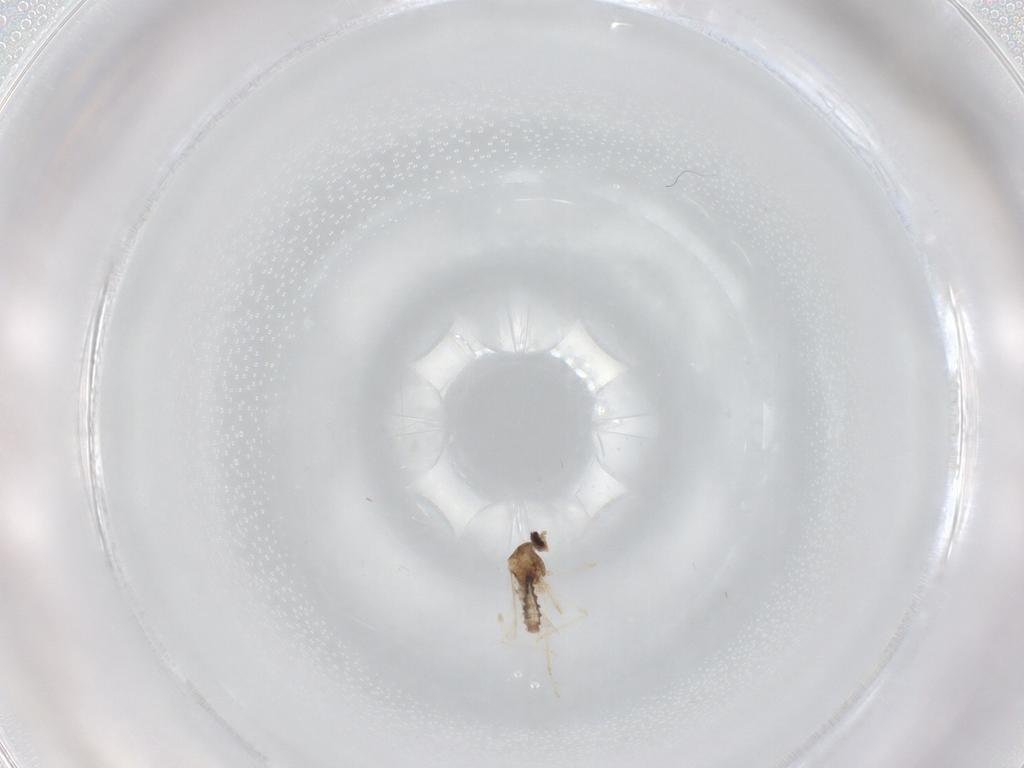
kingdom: Animalia
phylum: Arthropoda
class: Insecta
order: Diptera
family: Cecidomyiidae
